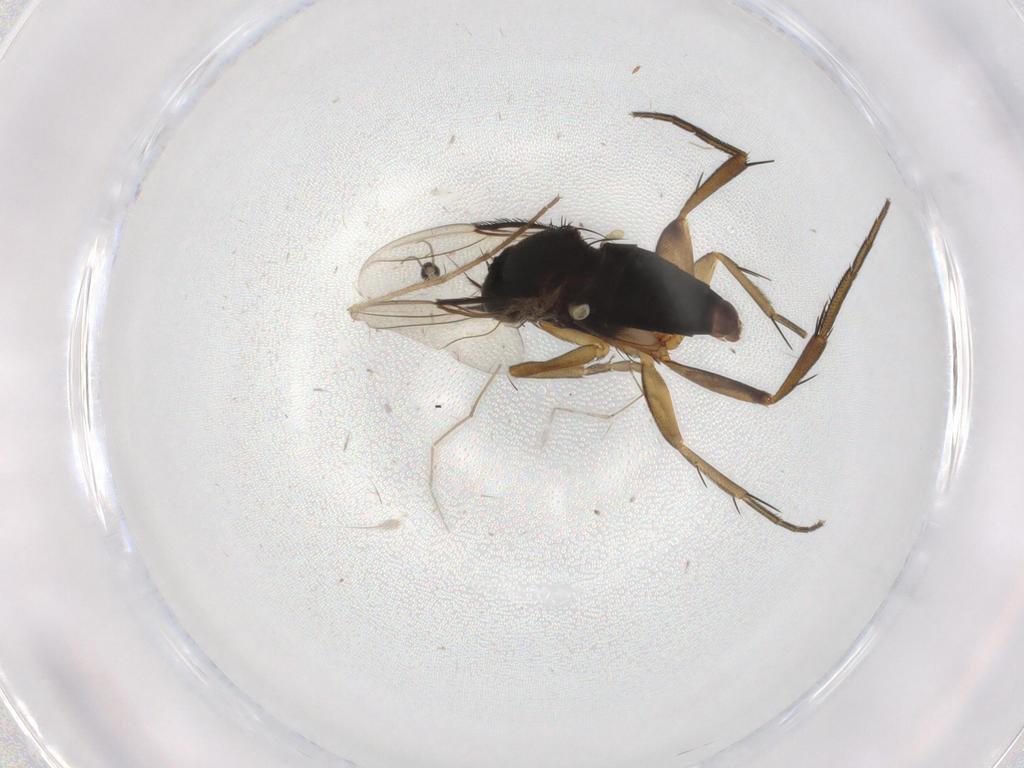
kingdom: Animalia
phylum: Arthropoda
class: Insecta
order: Diptera
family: Phoridae
